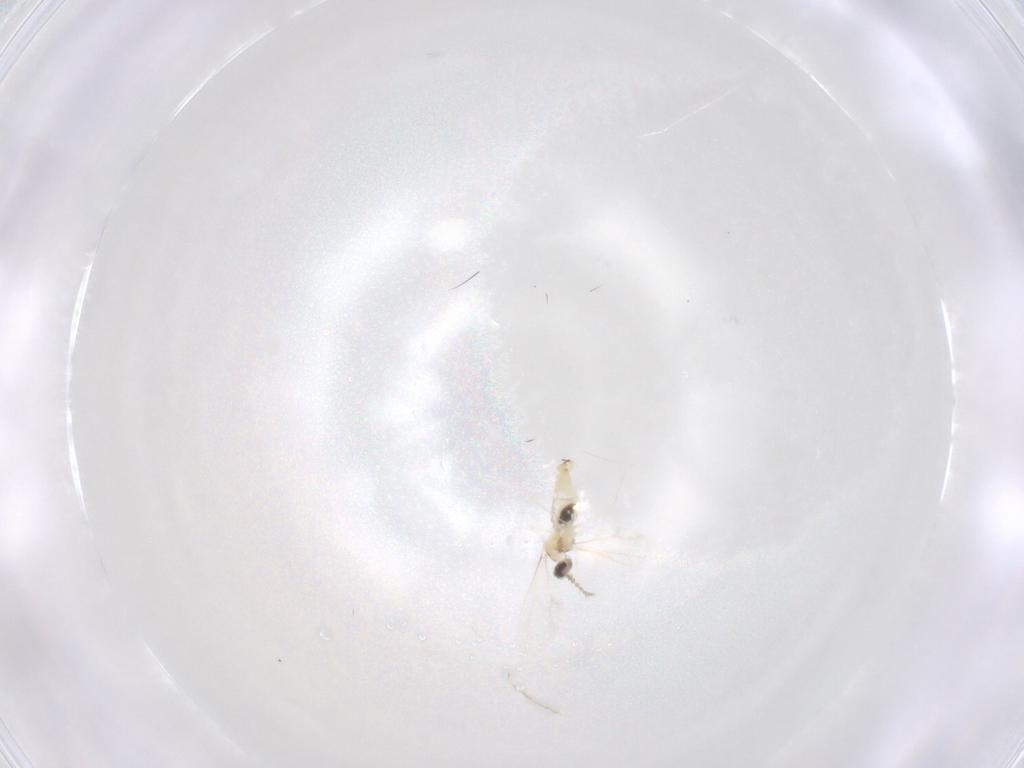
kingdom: Animalia
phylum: Arthropoda
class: Insecta
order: Diptera
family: Cecidomyiidae
